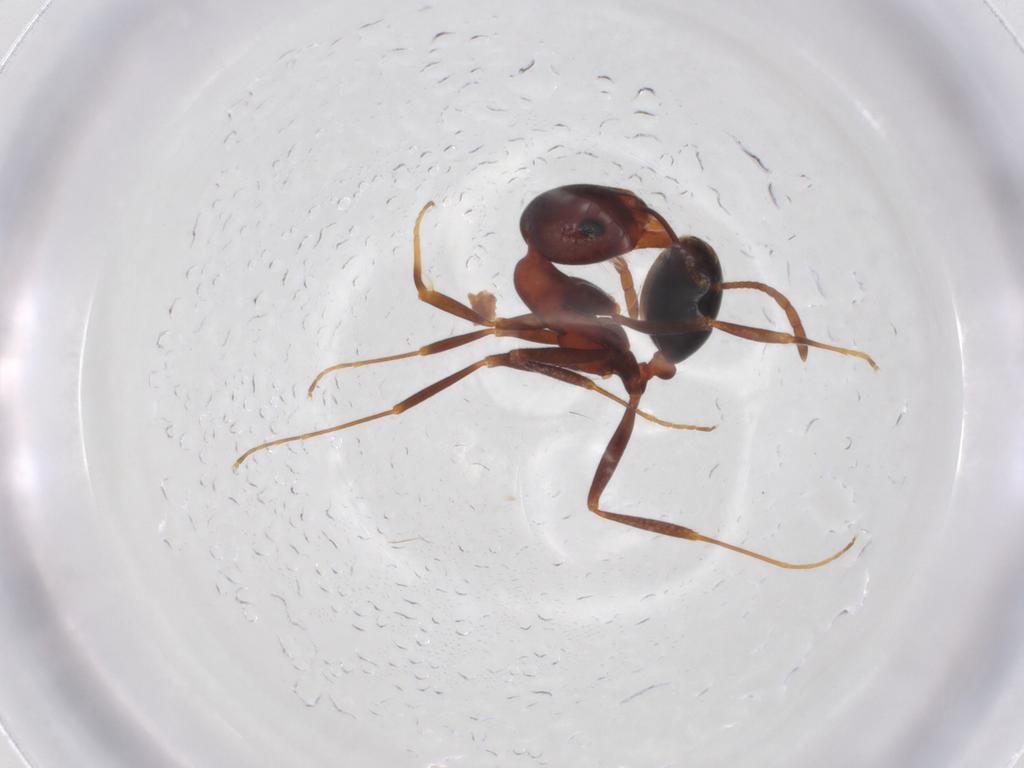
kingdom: Animalia
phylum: Arthropoda
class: Insecta
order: Hymenoptera
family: Formicidae
